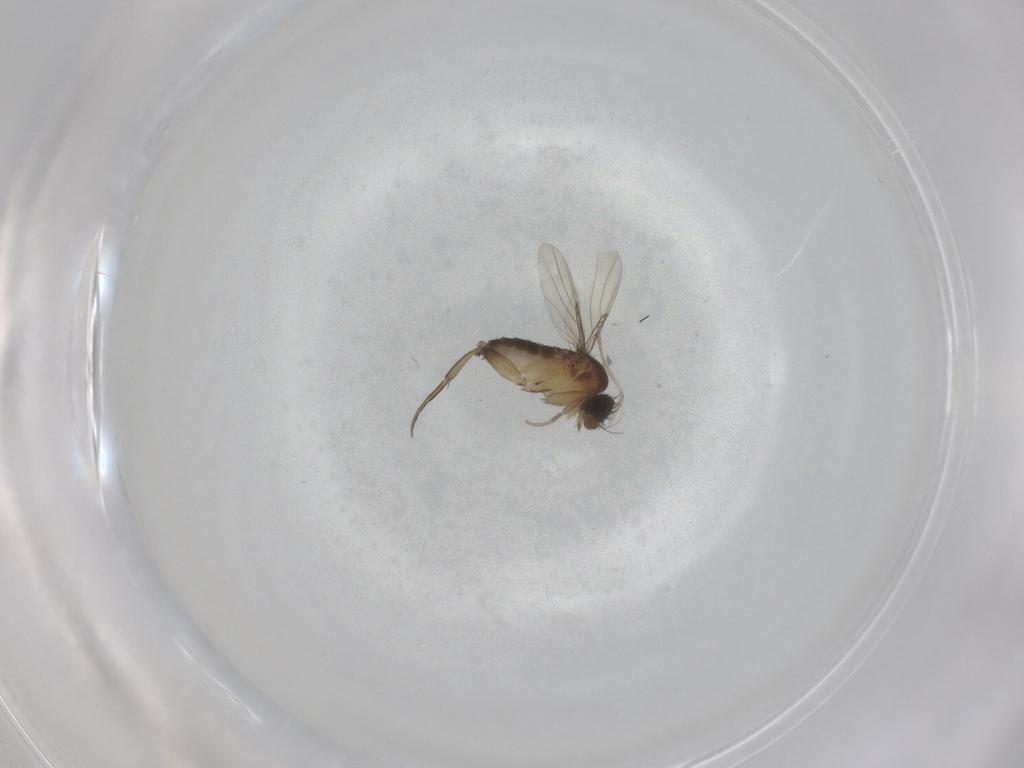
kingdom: Animalia
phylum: Arthropoda
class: Insecta
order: Diptera
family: Phoridae
